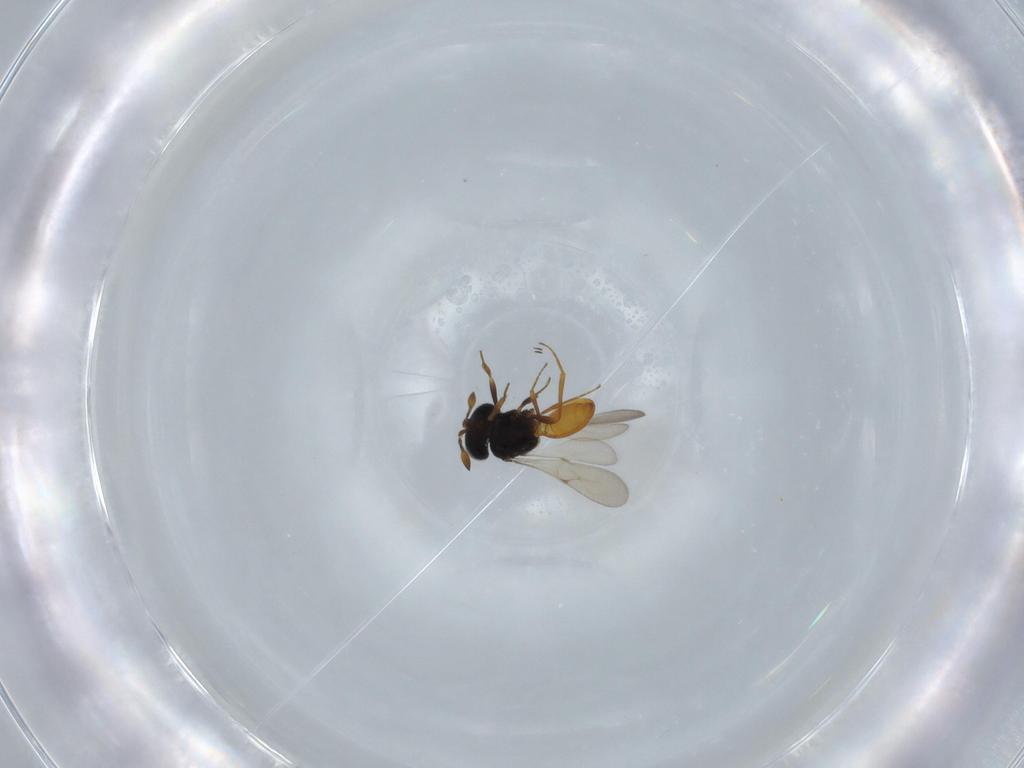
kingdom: Animalia
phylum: Arthropoda
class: Insecta
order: Hymenoptera
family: Scelionidae
